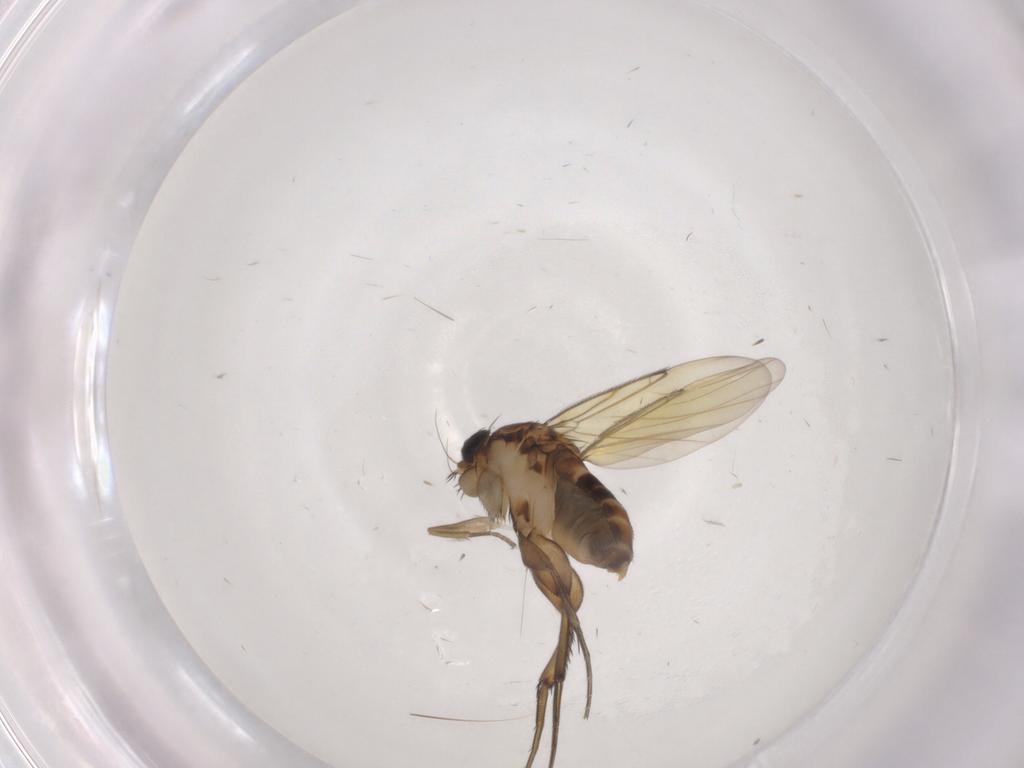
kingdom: Animalia
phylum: Arthropoda
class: Insecta
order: Diptera
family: Phoridae
